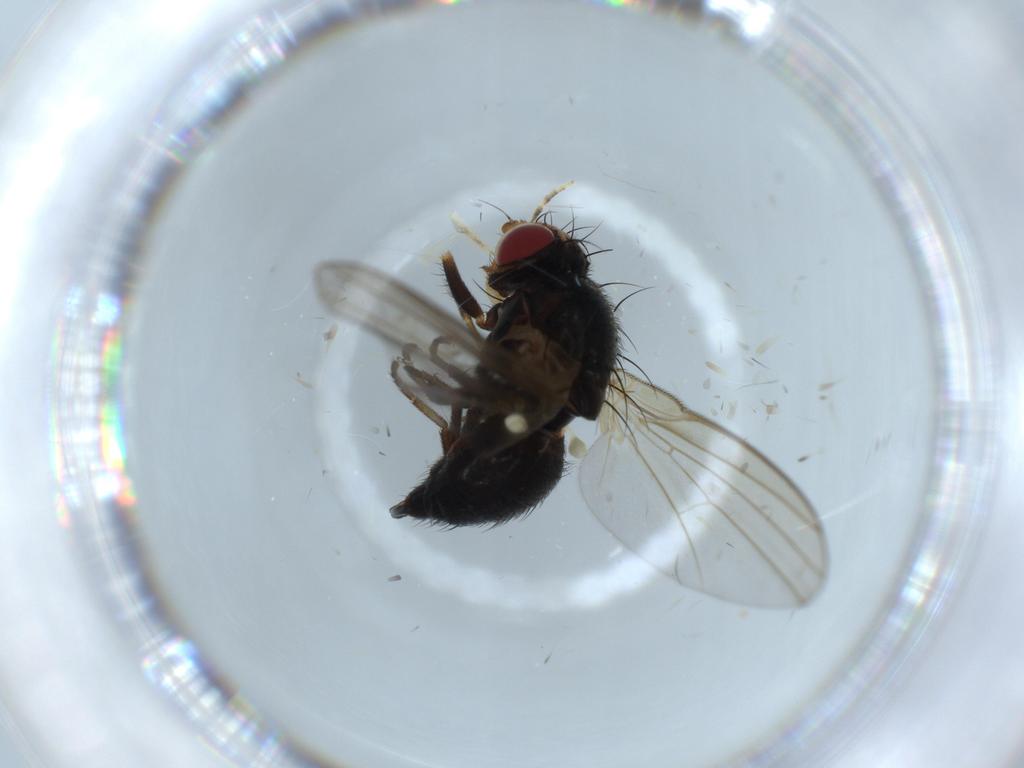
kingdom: Animalia
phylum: Arthropoda
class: Insecta
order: Diptera
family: Agromyzidae
